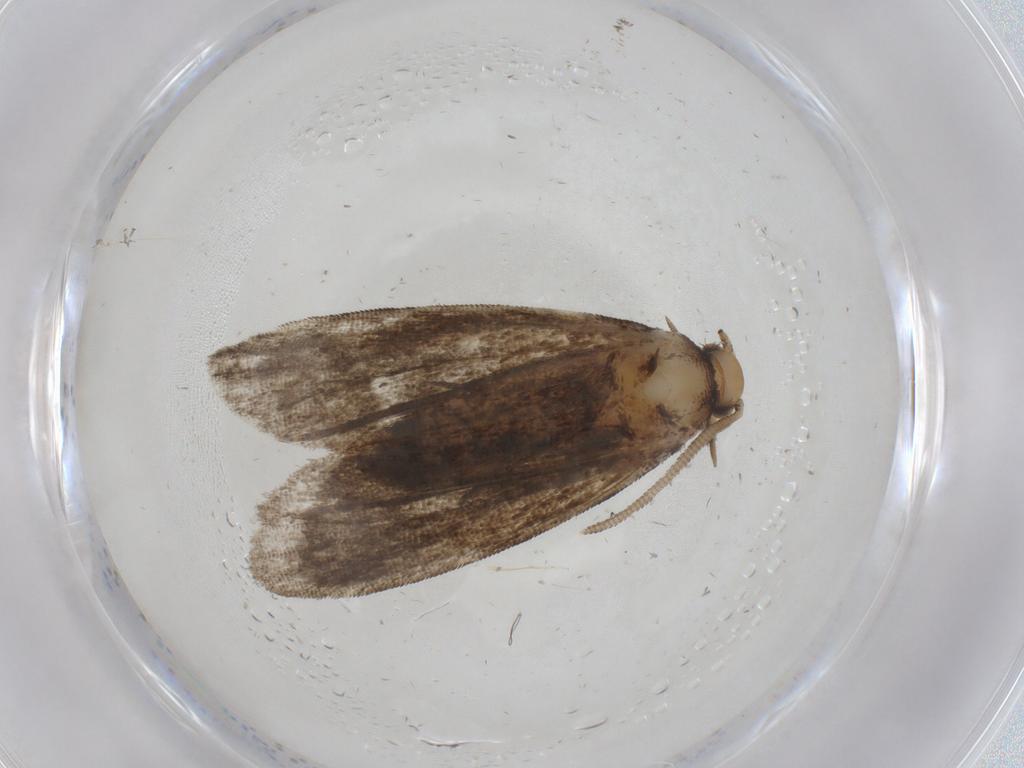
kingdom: Animalia
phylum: Arthropoda
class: Insecta
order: Lepidoptera
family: Dryadaulidae
